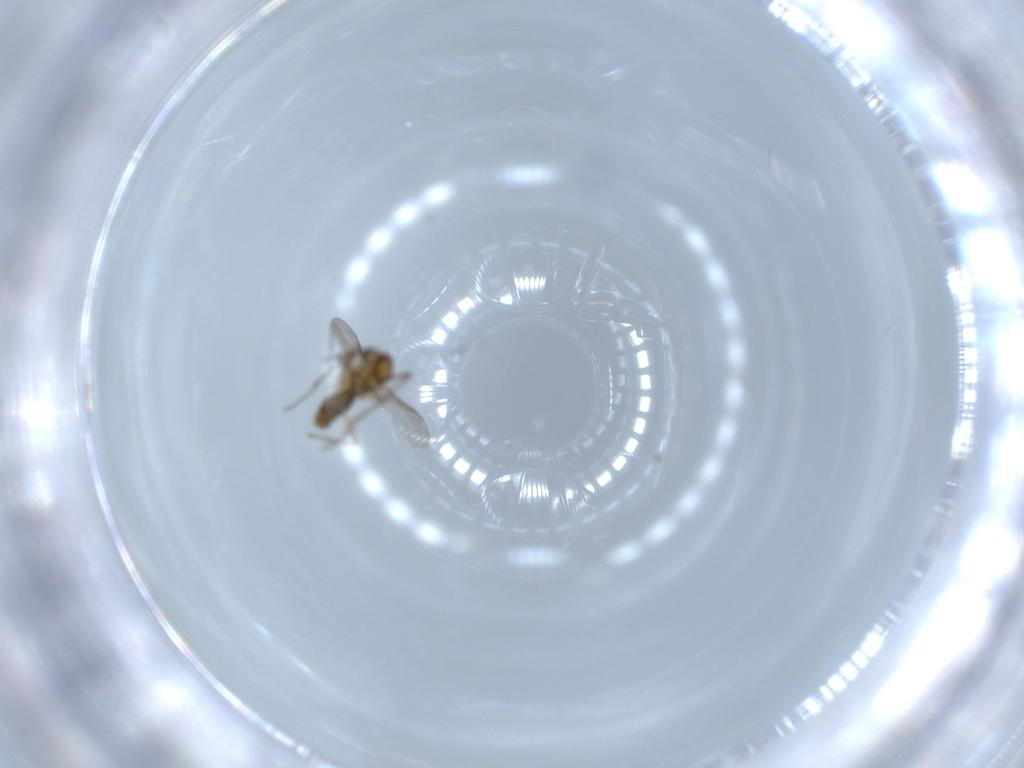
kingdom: Animalia
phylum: Arthropoda
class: Insecta
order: Diptera
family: Chironomidae
